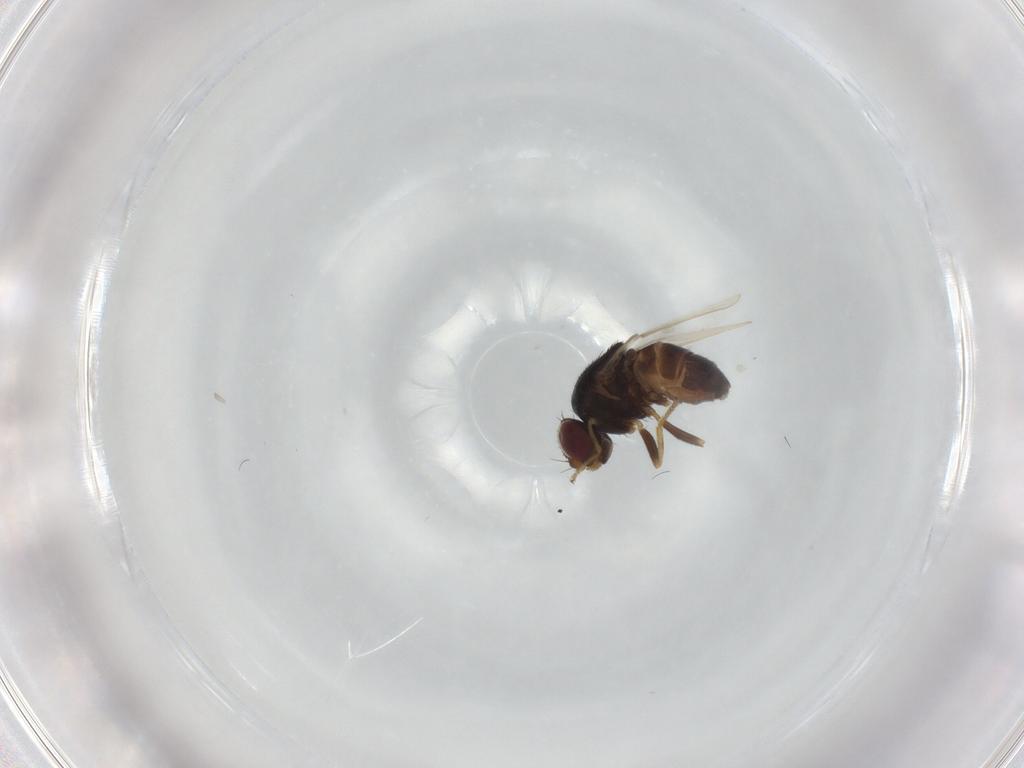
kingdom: Animalia
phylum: Arthropoda
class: Insecta
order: Diptera
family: Chloropidae
